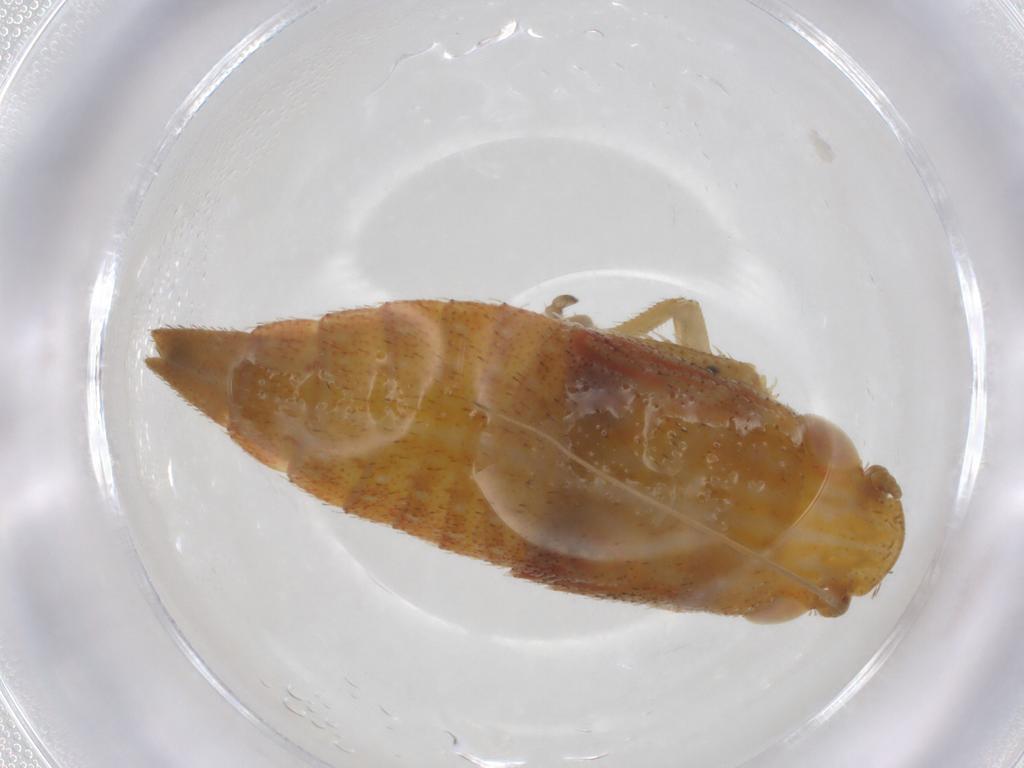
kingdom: Animalia
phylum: Arthropoda
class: Insecta
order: Hemiptera
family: Cicadellidae
